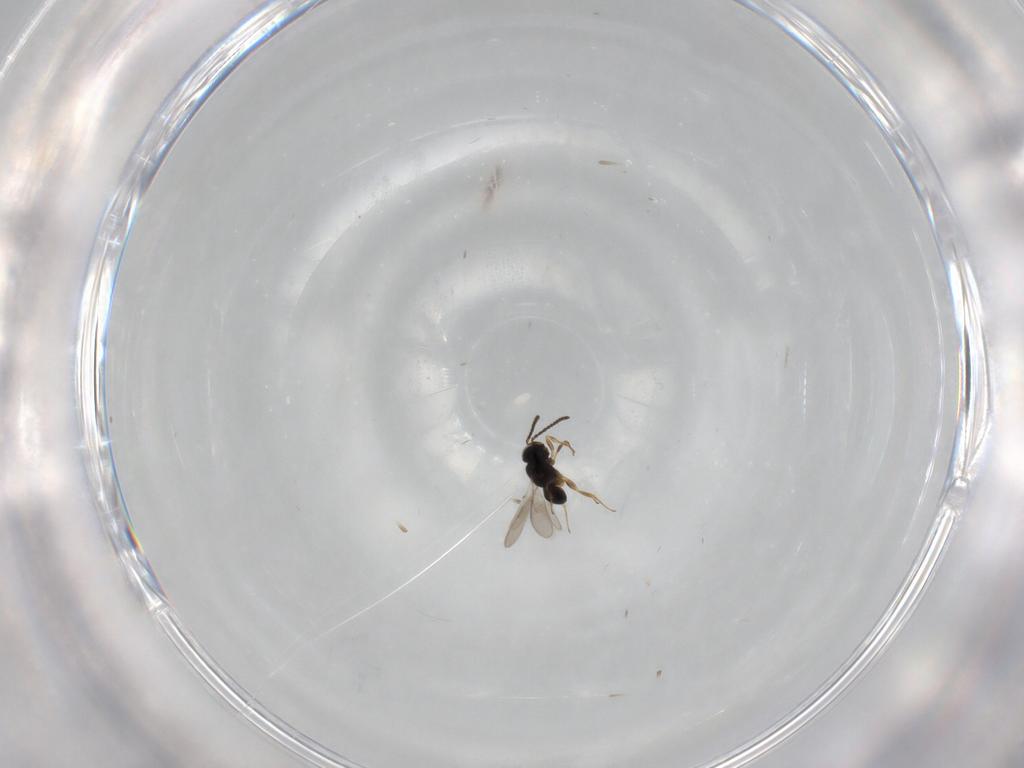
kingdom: Animalia
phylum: Arthropoda
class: Insecta
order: Hymenoptera
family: Scelionidae
